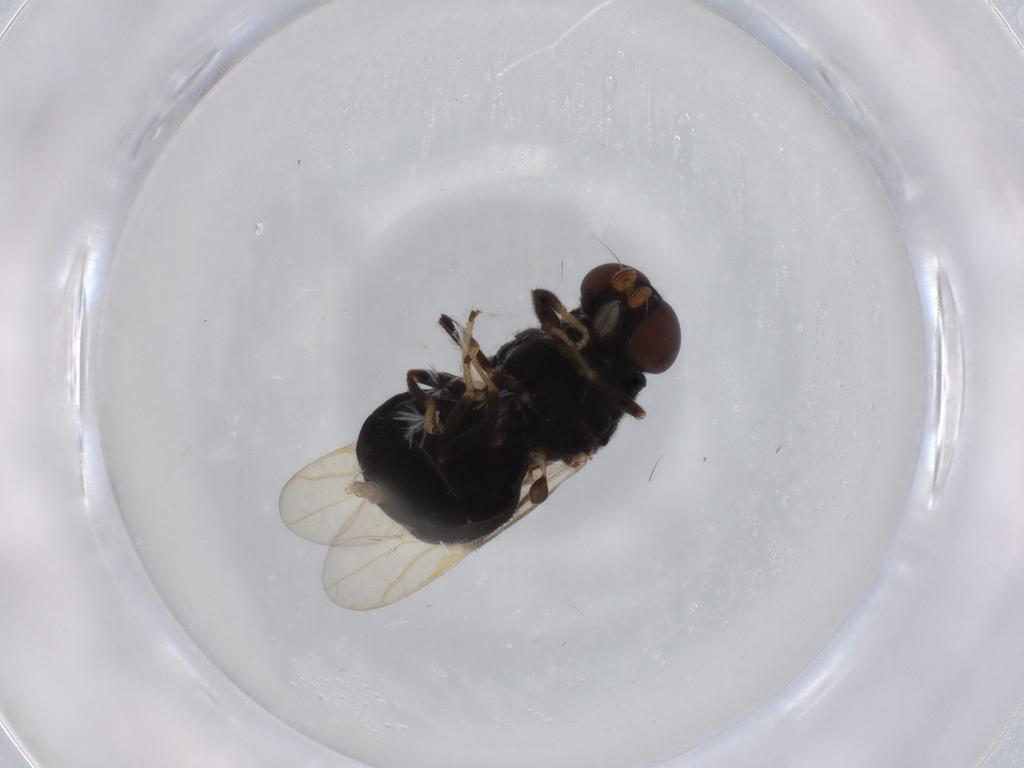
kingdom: Animalia
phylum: Arthropoda
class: Insecta
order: Diptera
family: Stratiomyidae
